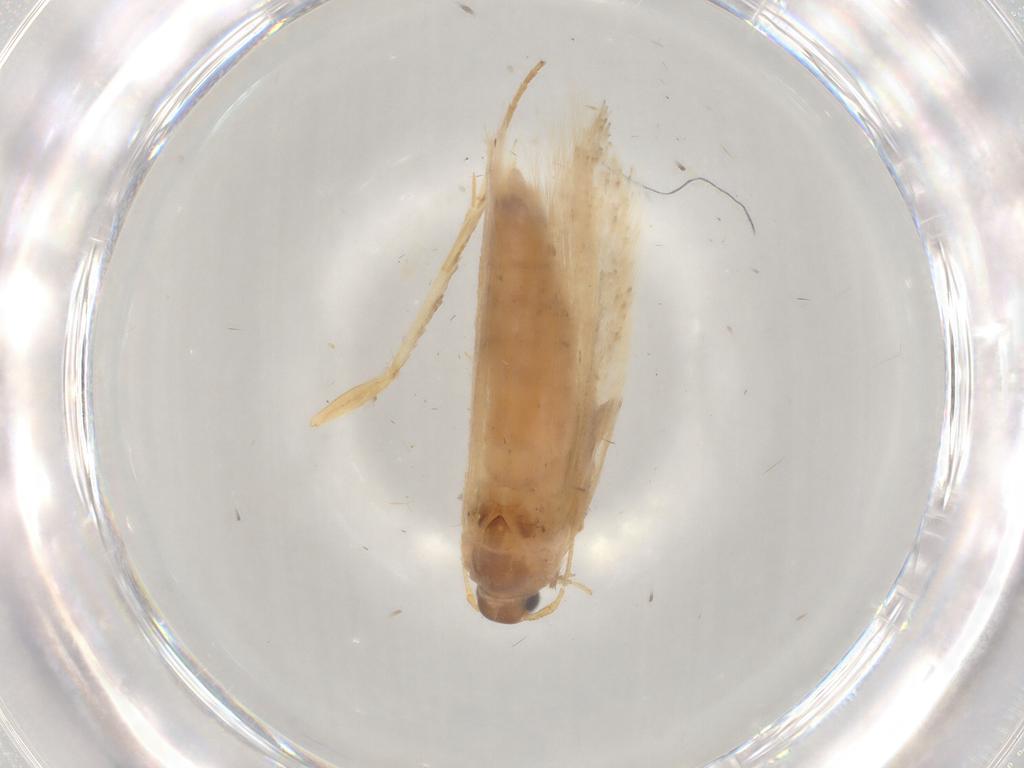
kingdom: Animalia
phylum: Arthropoda
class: Insecta
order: Lepidoptera
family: Gelechiidae
